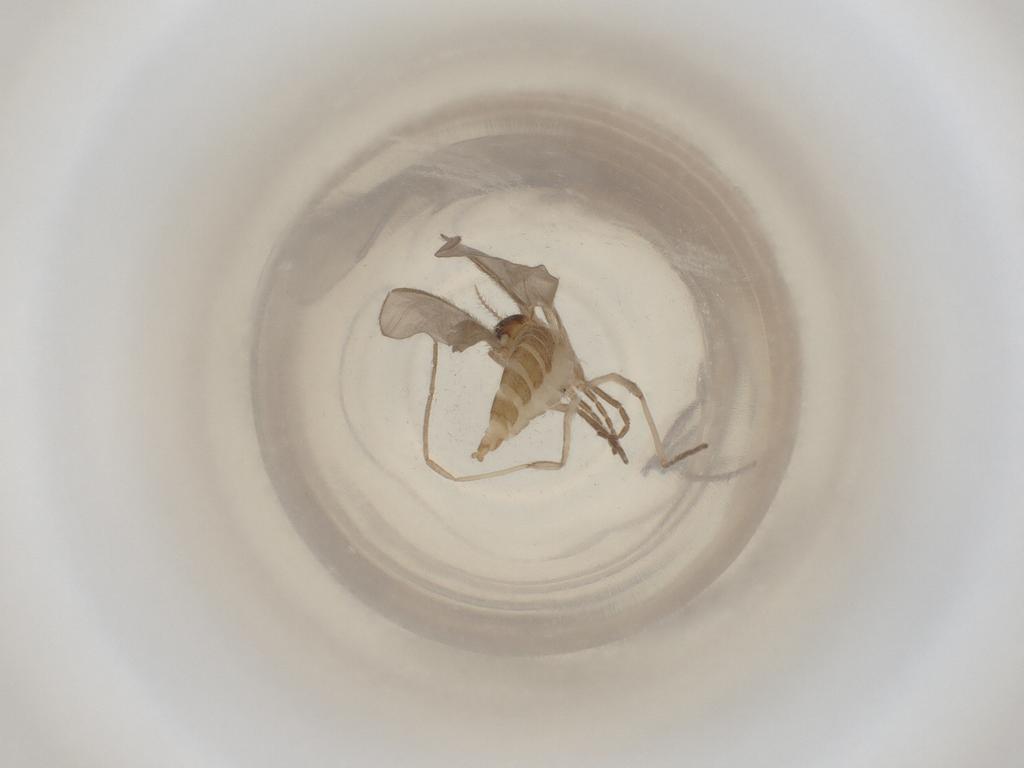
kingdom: Animalia
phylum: Arthropoda
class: Insecta
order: Diptera
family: Cecidomyiidae
